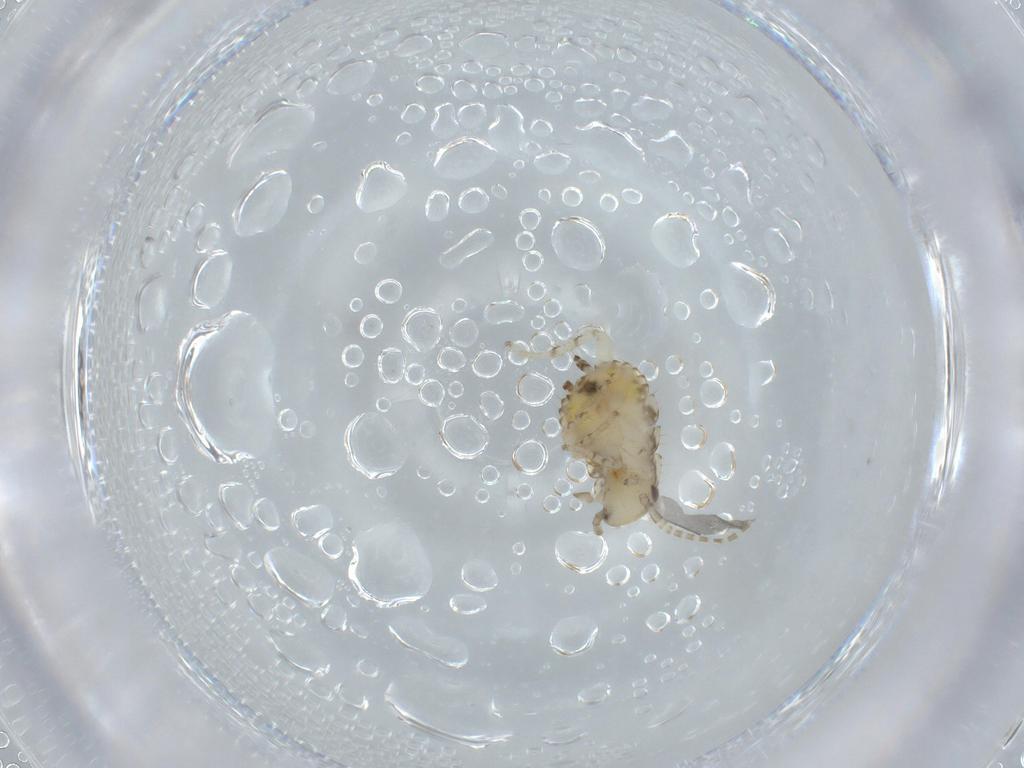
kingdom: Animalia
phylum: Arthropoda
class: Insecta
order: Blattodea
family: Ectobiidae
